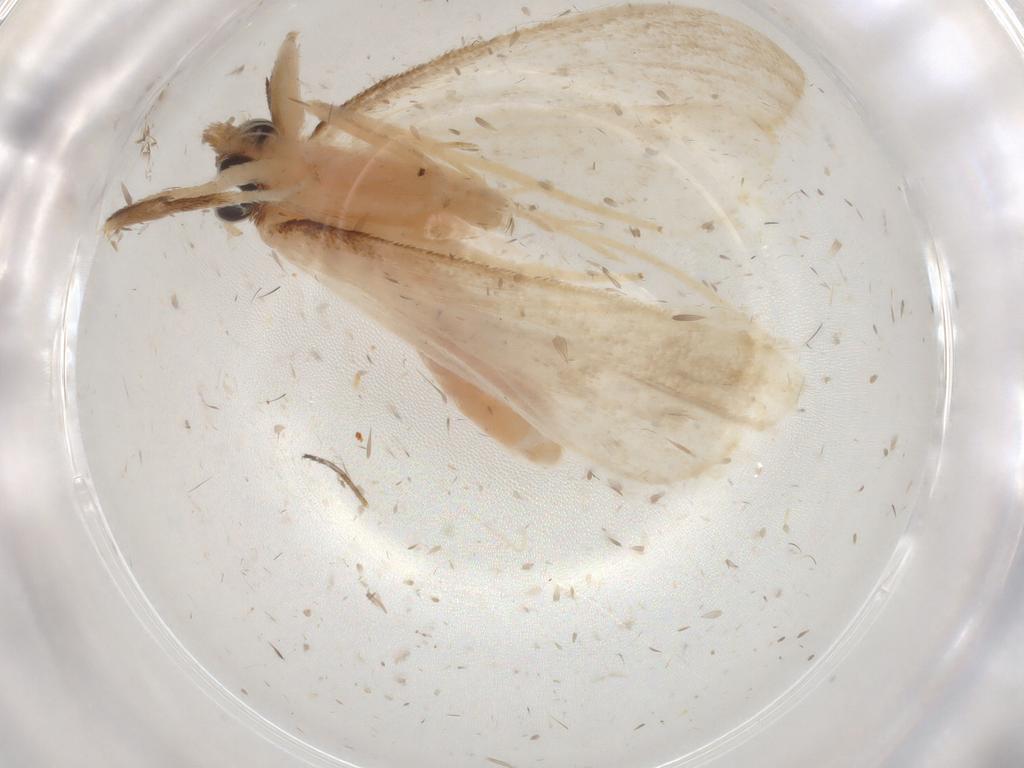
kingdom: Animalia
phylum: Arthropoda
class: Insecta
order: Lepidoptera
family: Crambidae
